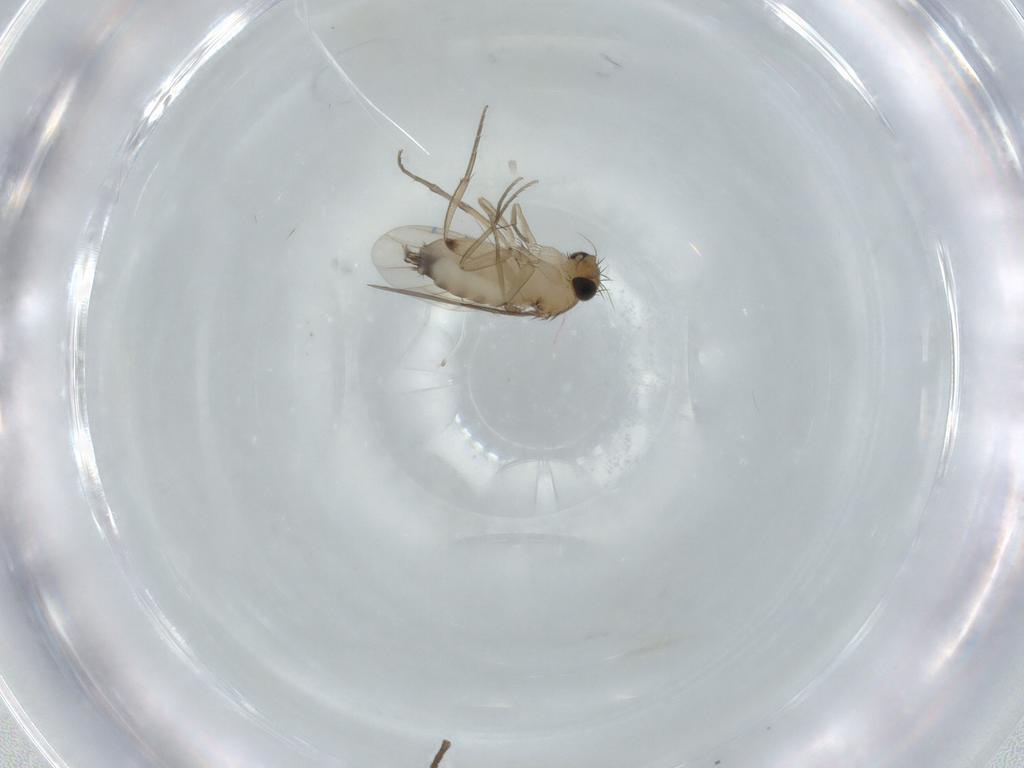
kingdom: Animalia
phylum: Arthropoda
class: Insecta
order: Diptera
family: Phoridae
